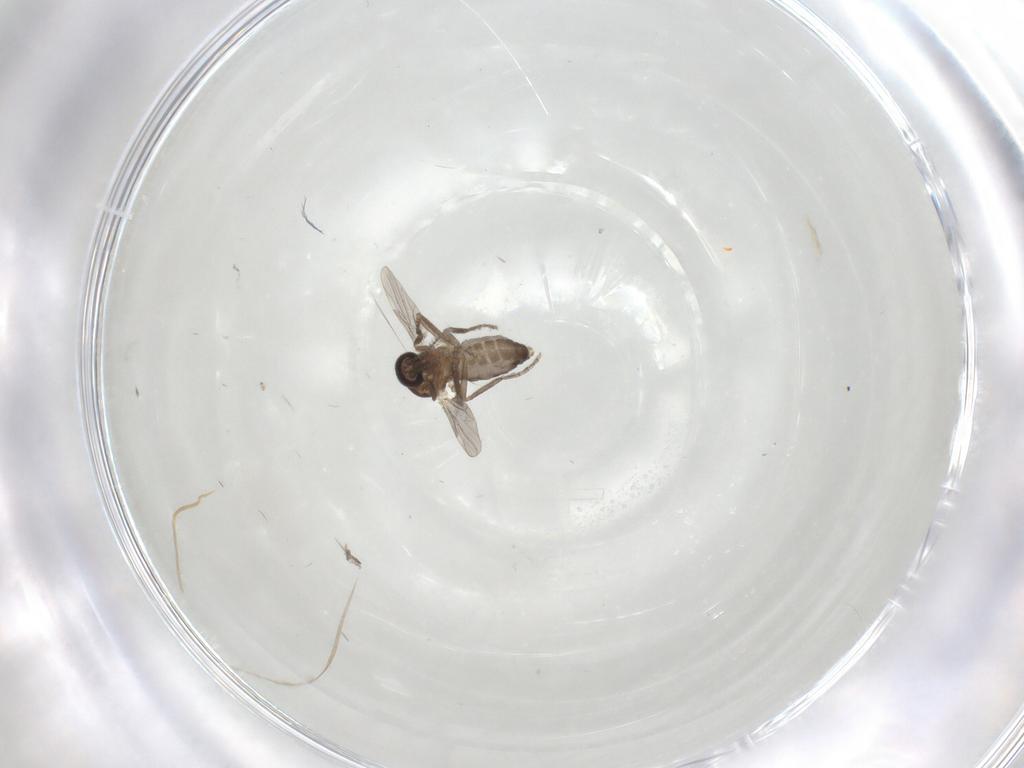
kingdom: Animalia
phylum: Arthropoda
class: Insecta
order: Diptera
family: Ceratopogonidae
